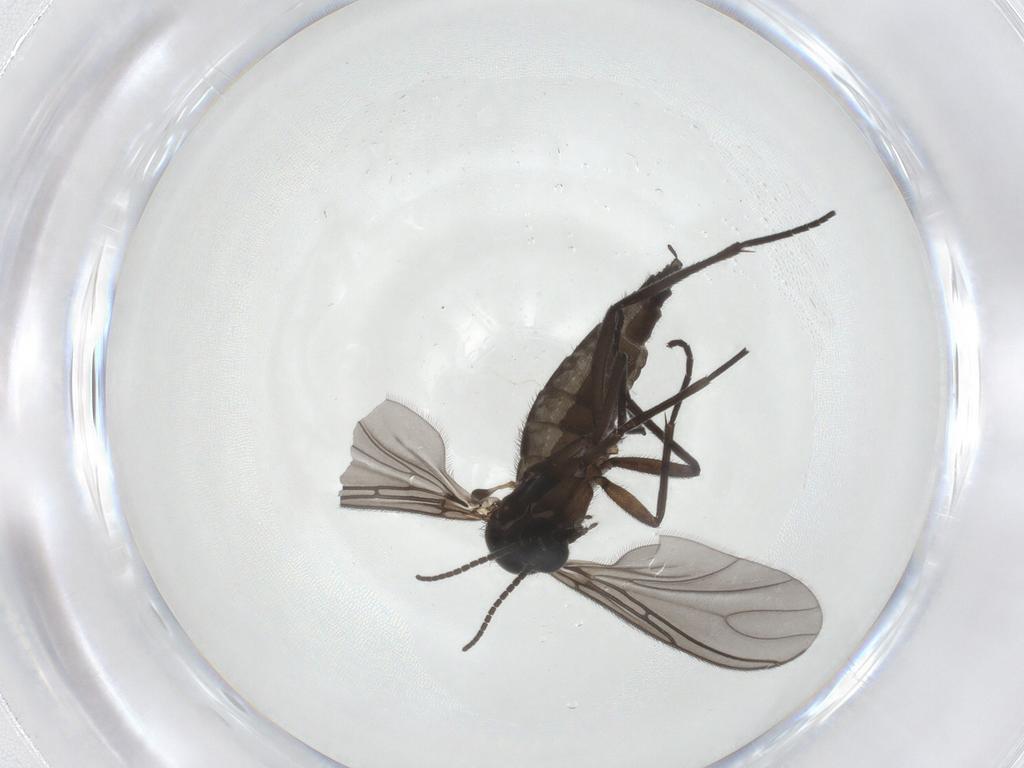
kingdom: Animalia
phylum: Arthropoda
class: Insecta
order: Diptera
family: Sciaridae
